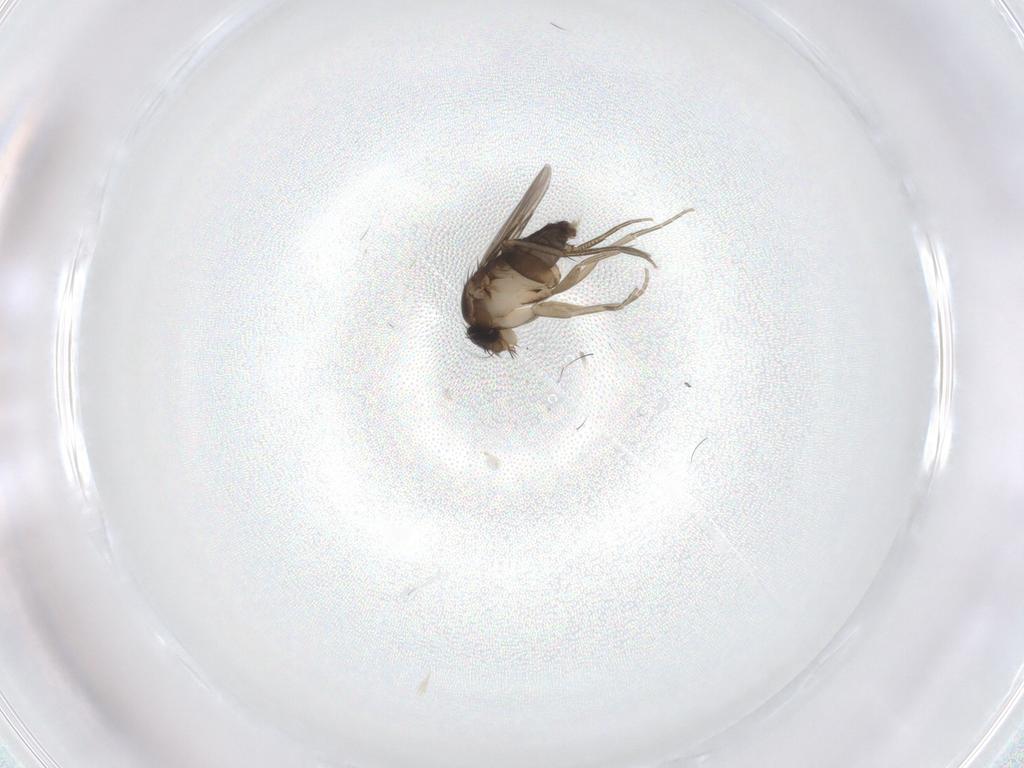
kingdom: Animalia
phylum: Arthropoda
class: Insecta
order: Diptera
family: Phoridae
